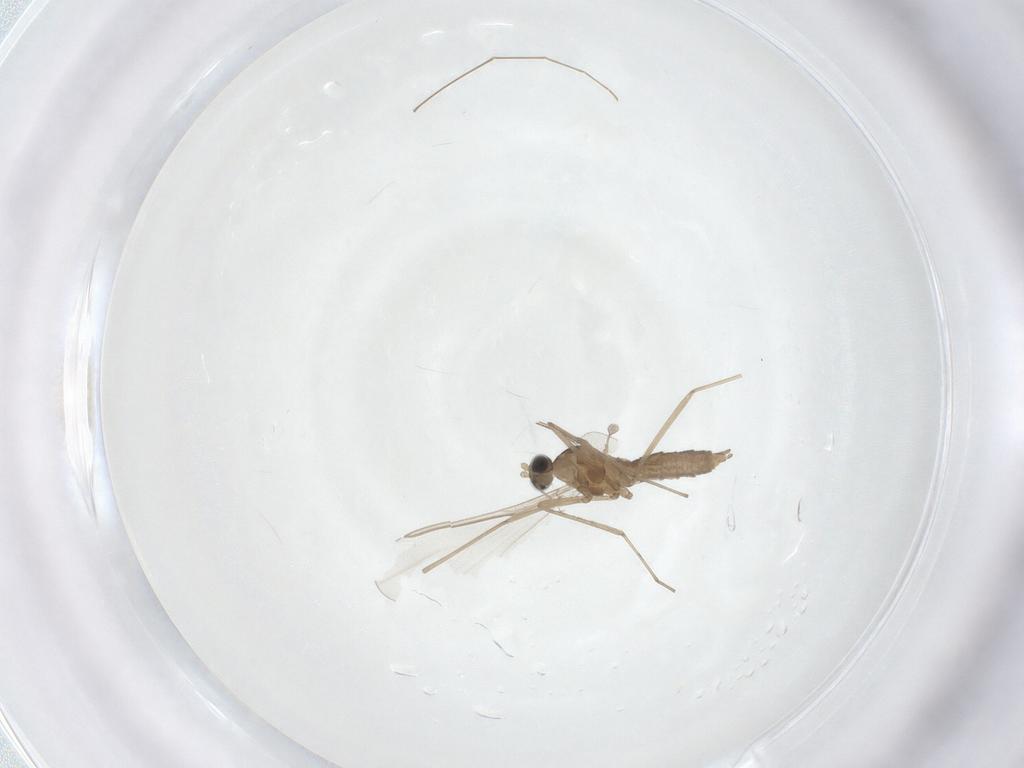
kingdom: Animalia
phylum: Arthropoda
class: Insecta
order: Diptera
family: Chironomidae
